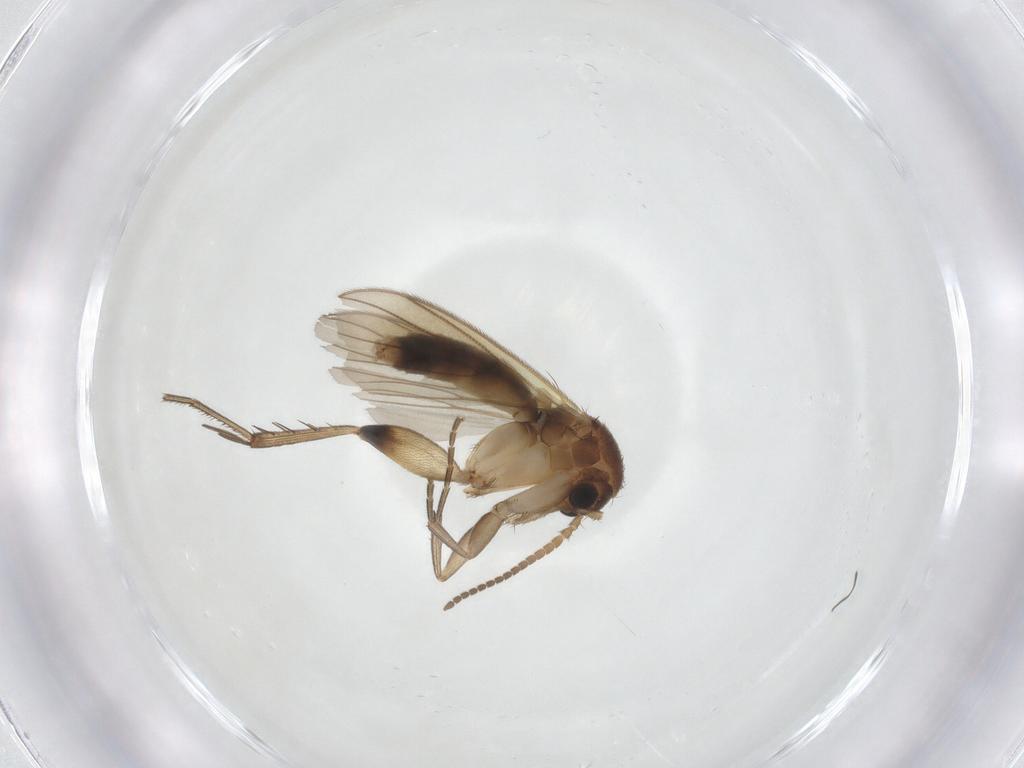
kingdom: Animalia
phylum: Arthropoda
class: Insecta
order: Diptera
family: Mycetophilidae
